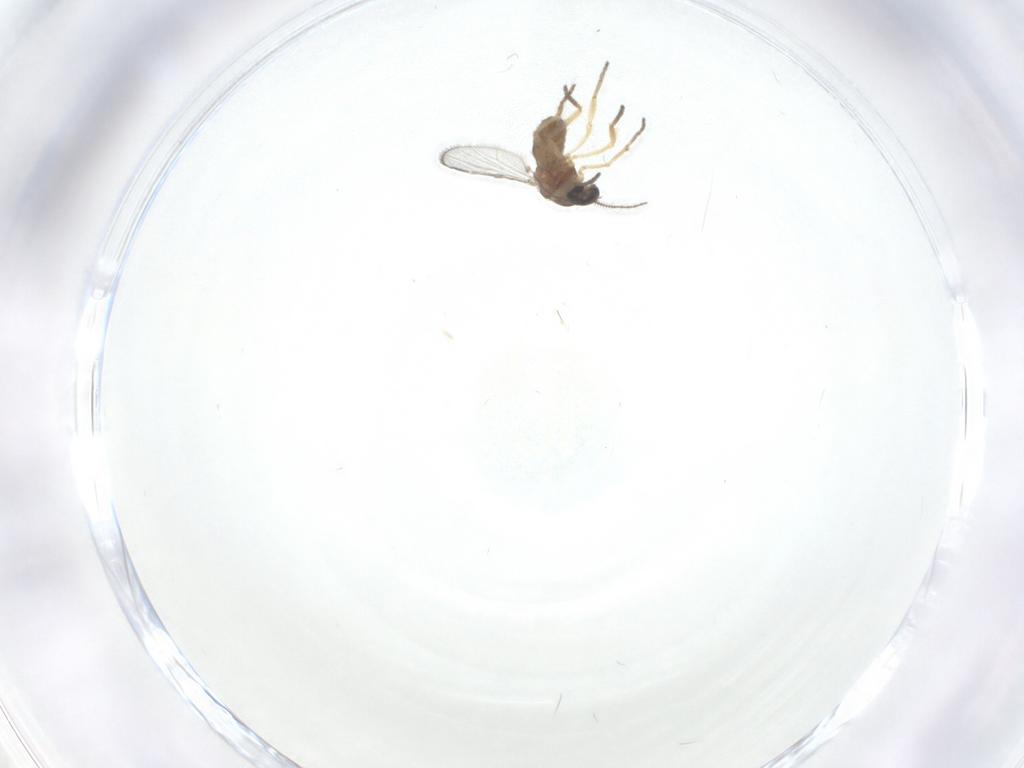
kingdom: Animalia
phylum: Arthropoda
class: Insecta
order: Diptera
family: Ceratopogonidae
